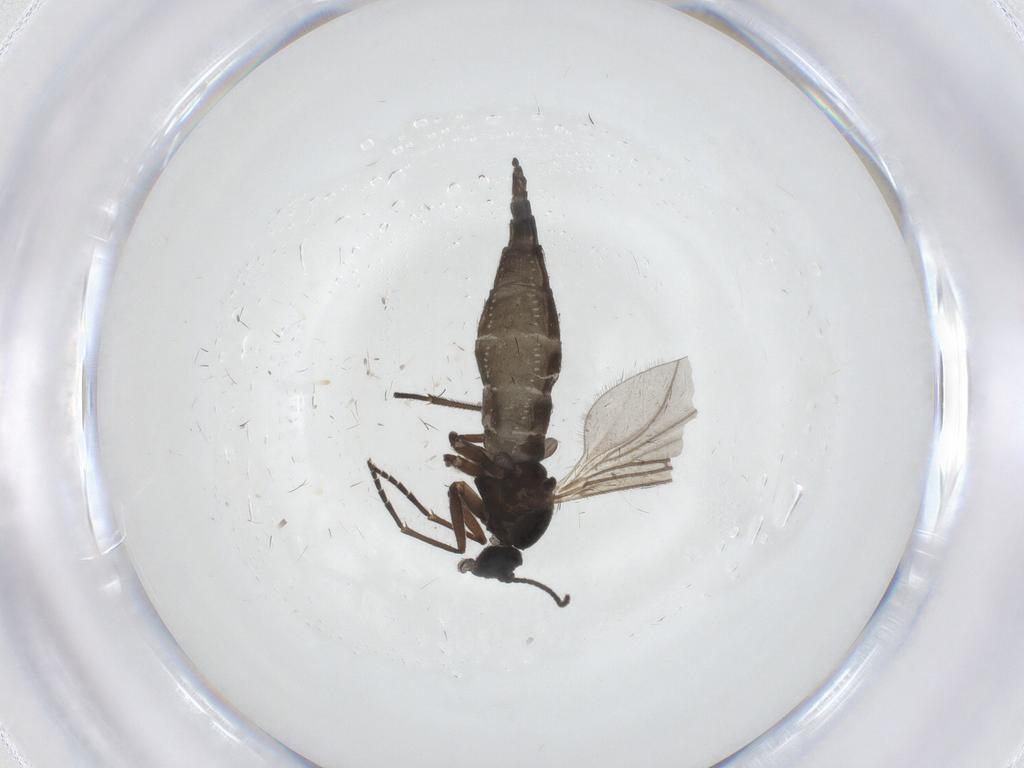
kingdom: Animalia
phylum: Arthropoda
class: Insecta
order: Diptera
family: Sciaridae
